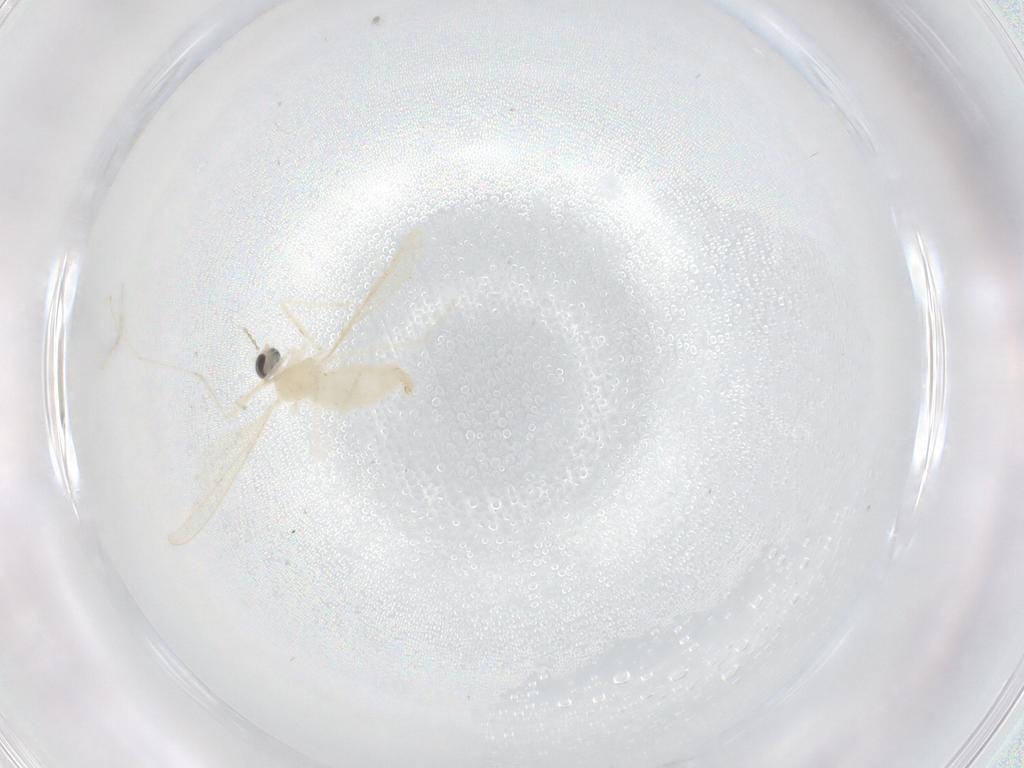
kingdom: Animalia
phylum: Arthropoda
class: Insecta
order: Diptera
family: Cecidomyiidae
